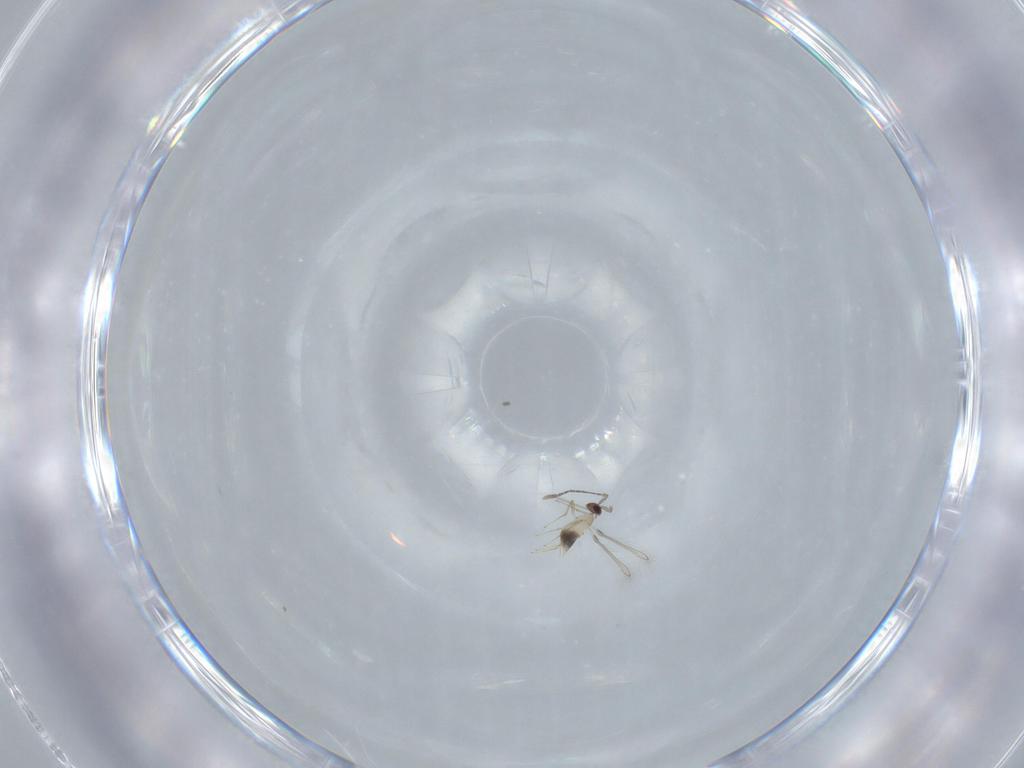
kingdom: Animalia
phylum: Arthropoda
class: Insecta
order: Hymenoptera
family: Mymaridae
